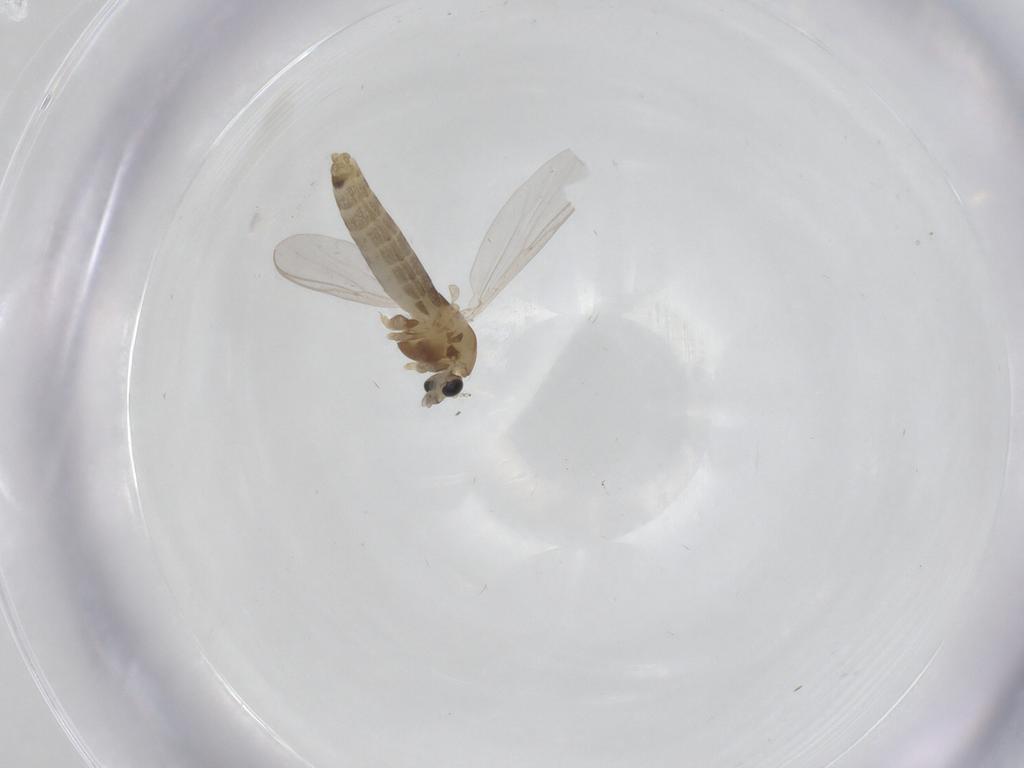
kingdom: Animalia
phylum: Arthropoda
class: Insecta
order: Diptera
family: Chironomidae
